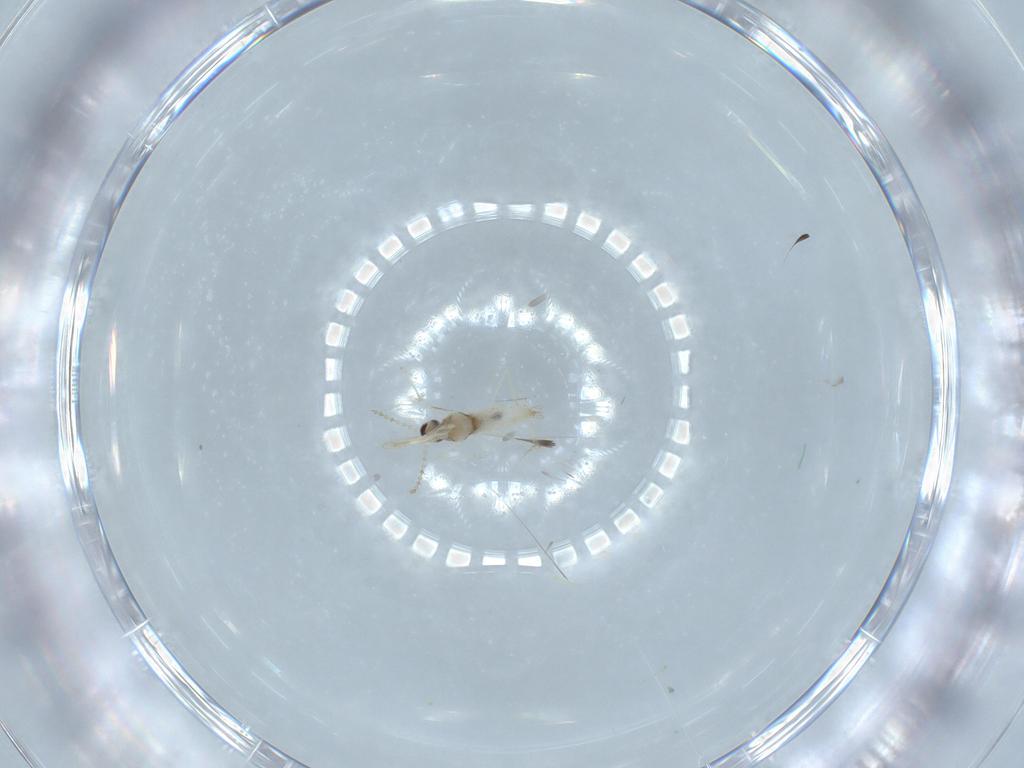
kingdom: Animalia
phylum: Arthropoda
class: Insecta
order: Diptera
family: Cecidomyiidae
